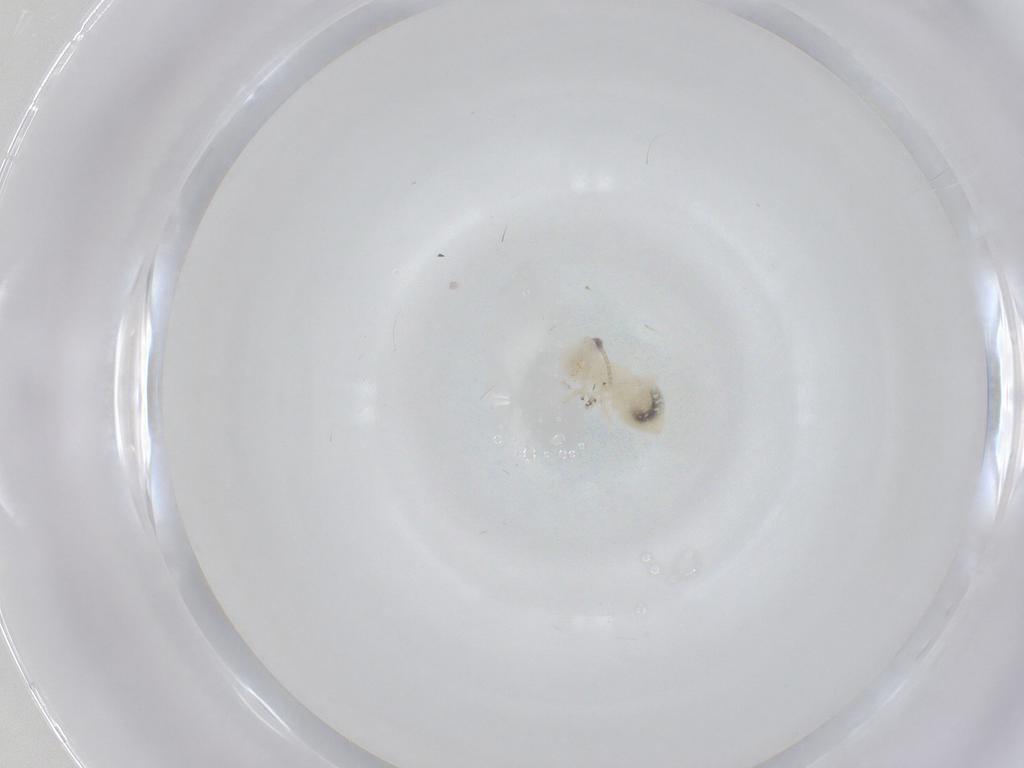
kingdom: Animalia
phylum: Arthropoda
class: Insecta
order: Psocodea
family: Caeciliusidae
